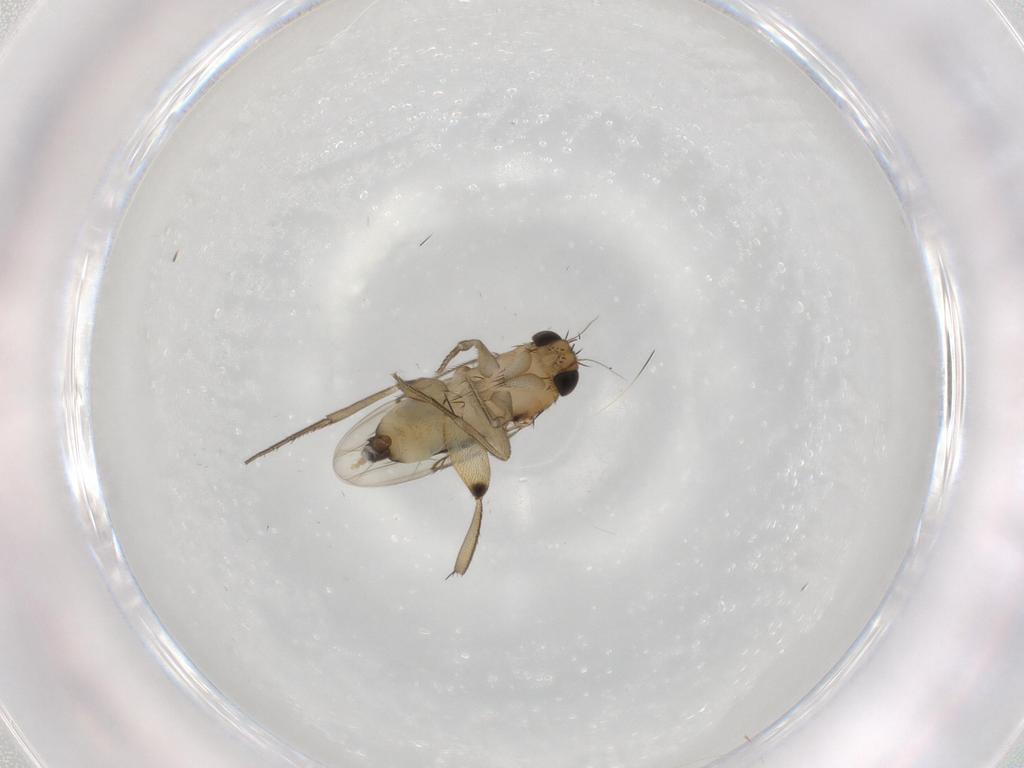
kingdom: Animalia
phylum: Arthropoda
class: Insecta
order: Diptera
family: Phoridae
